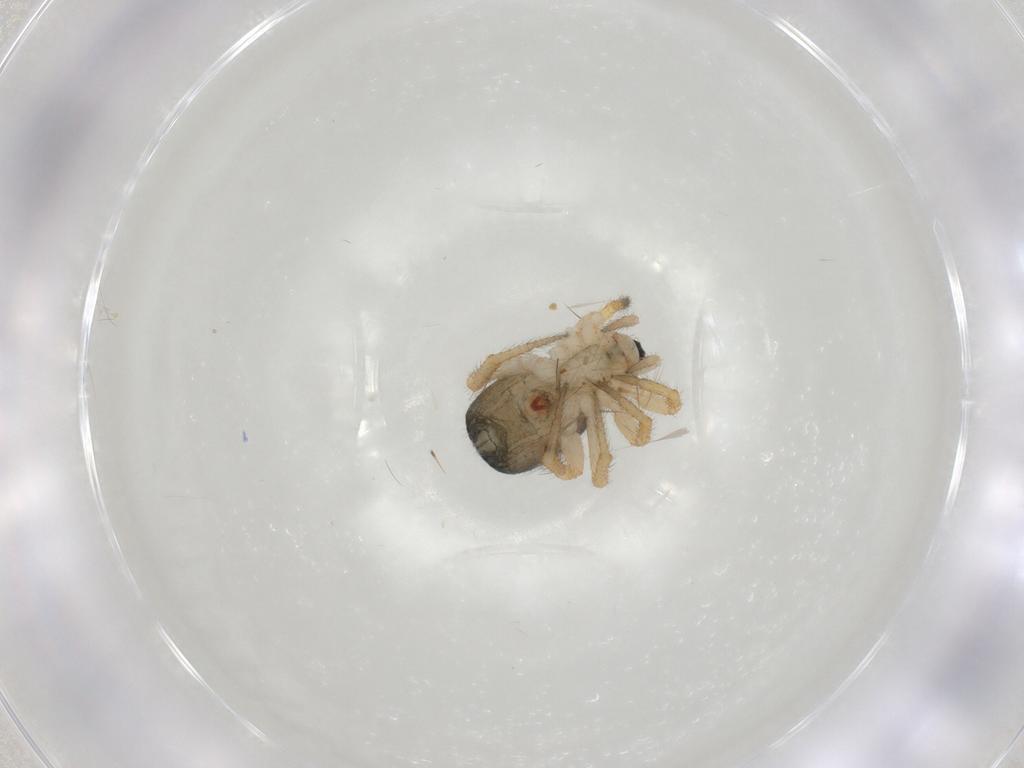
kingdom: Animalia
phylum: Arthropoda
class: Arachnida
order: Araneae
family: Theridiidae
